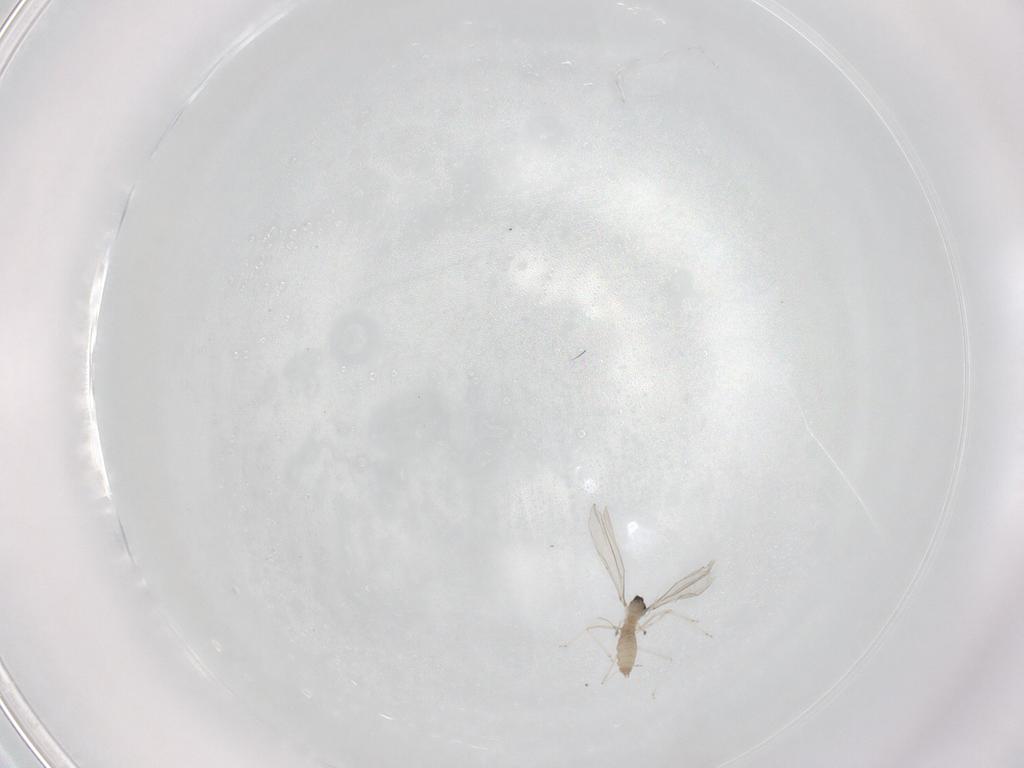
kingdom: Animalia
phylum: Arthropoda
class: Insecta
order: Diptera
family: Cecidomyiidae
